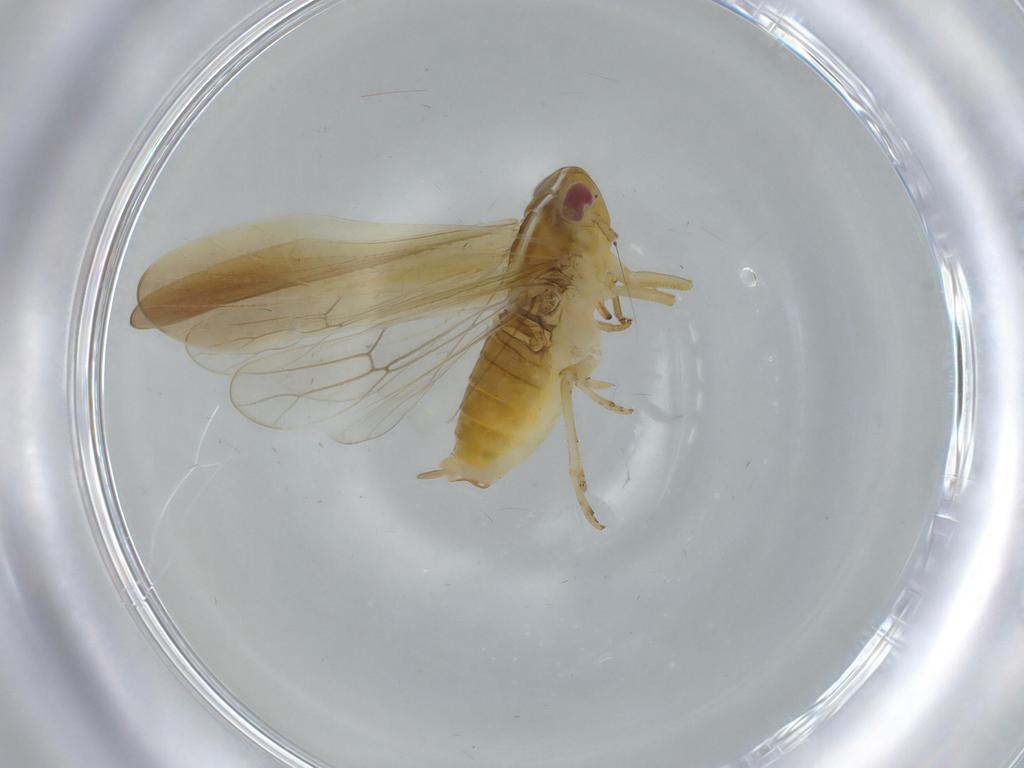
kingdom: Animalia
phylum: Arthropoda
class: Insecta
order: Hemiptera
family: Delphacidae
